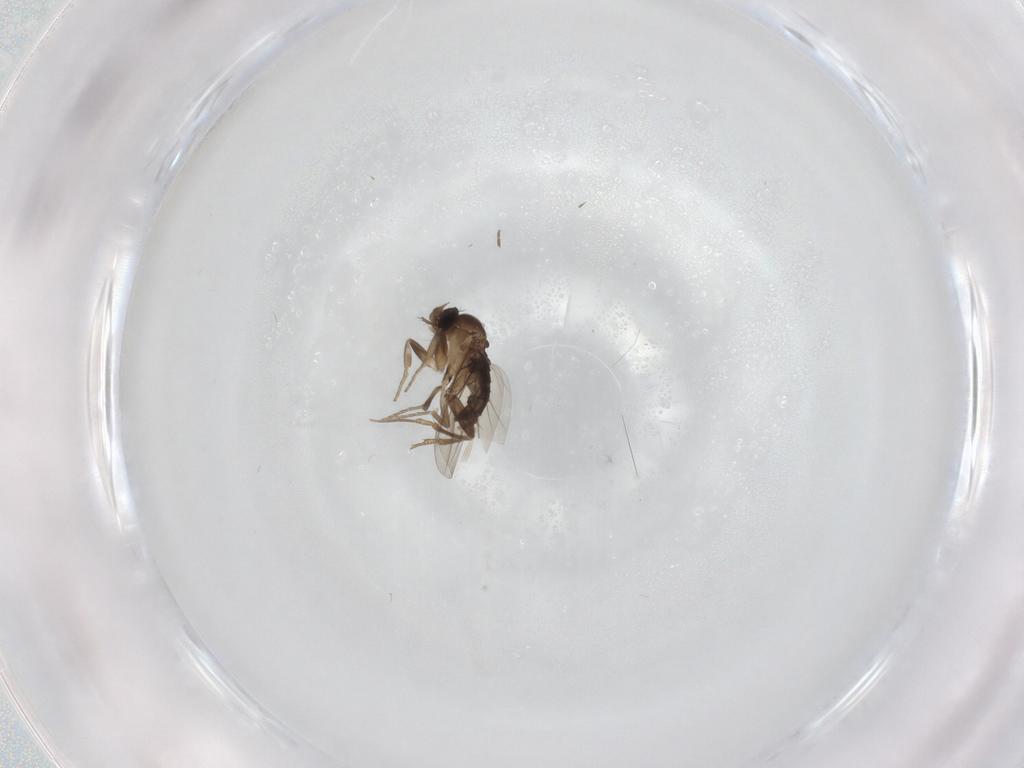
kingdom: Animalia
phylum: Arthropoda
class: Insecta
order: Diptera
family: Phoridae
